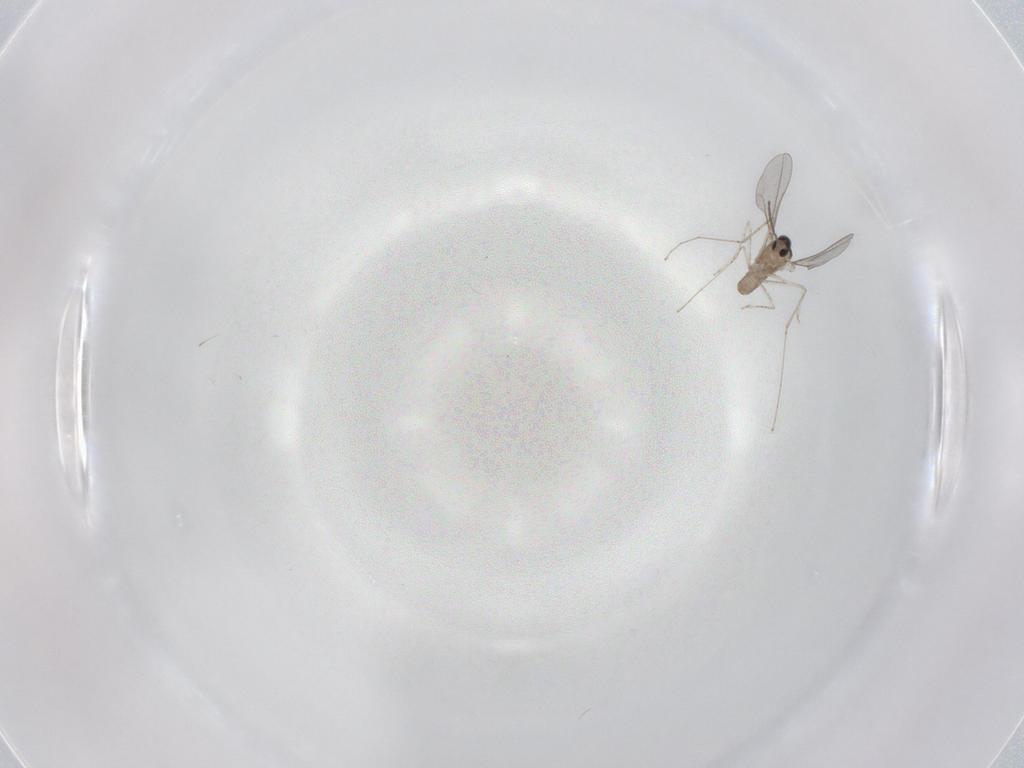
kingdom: Animalia
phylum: Arthropoda
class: Insecta
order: Diptera
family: Cecidomyiidae
